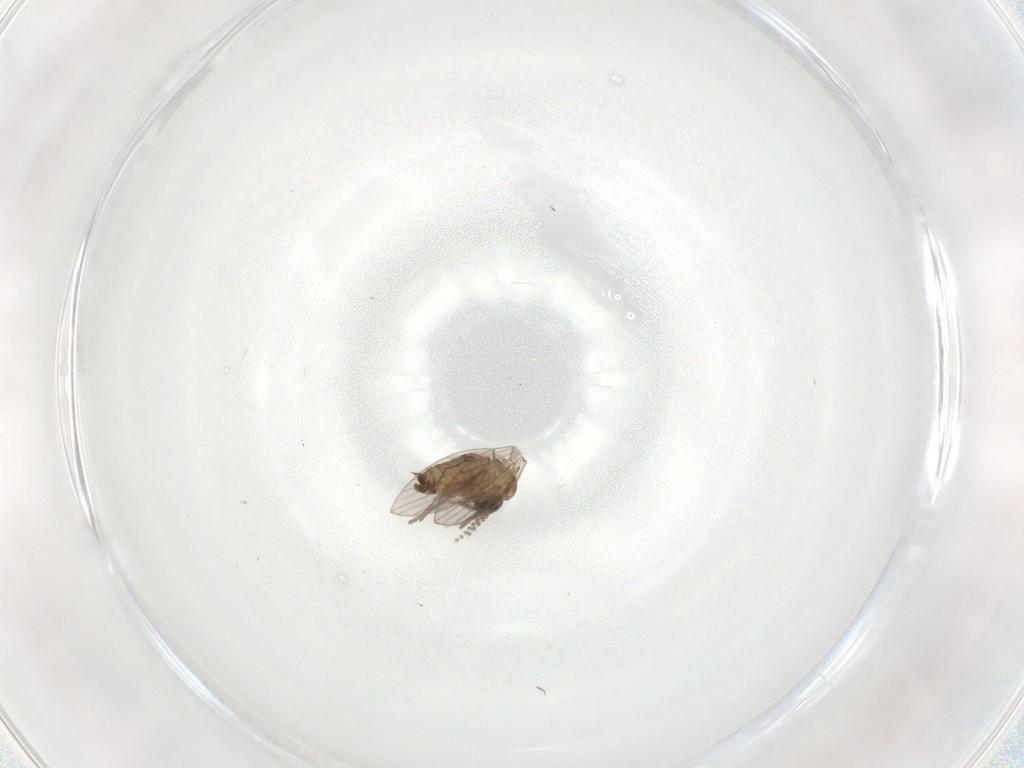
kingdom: Animalia
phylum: Arthropoda
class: Insecta
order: Diptera
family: Psychodidae
